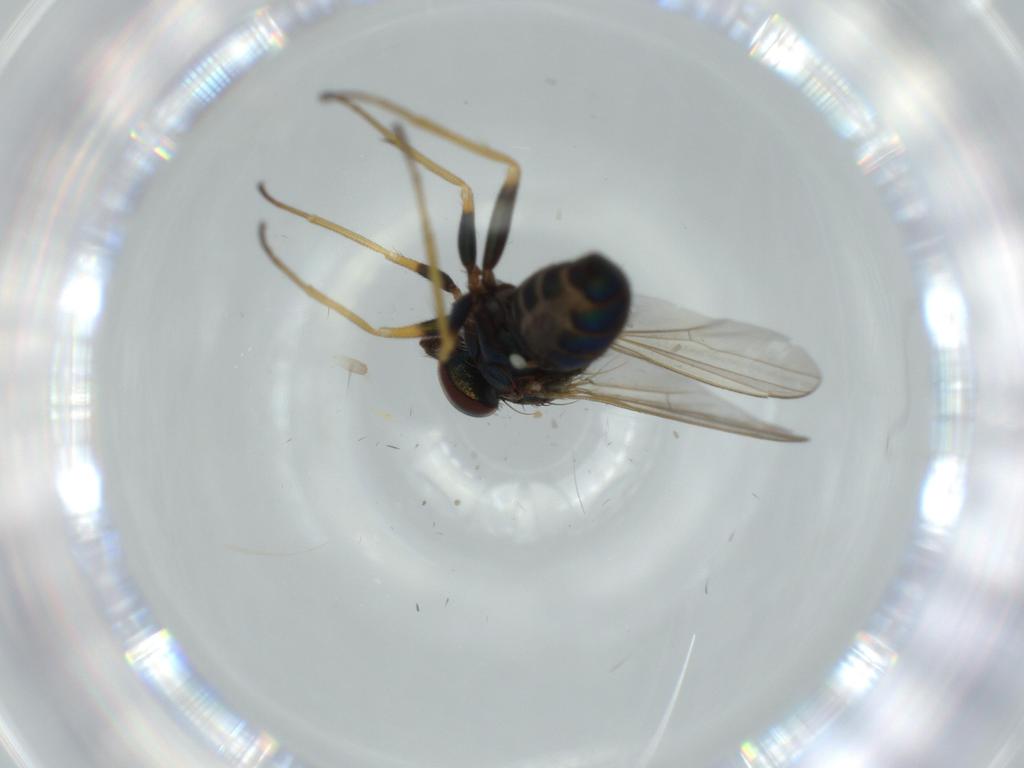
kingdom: Animalia
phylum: Arthropoda
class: Insecta
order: Diptera
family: Dolichopodidae
